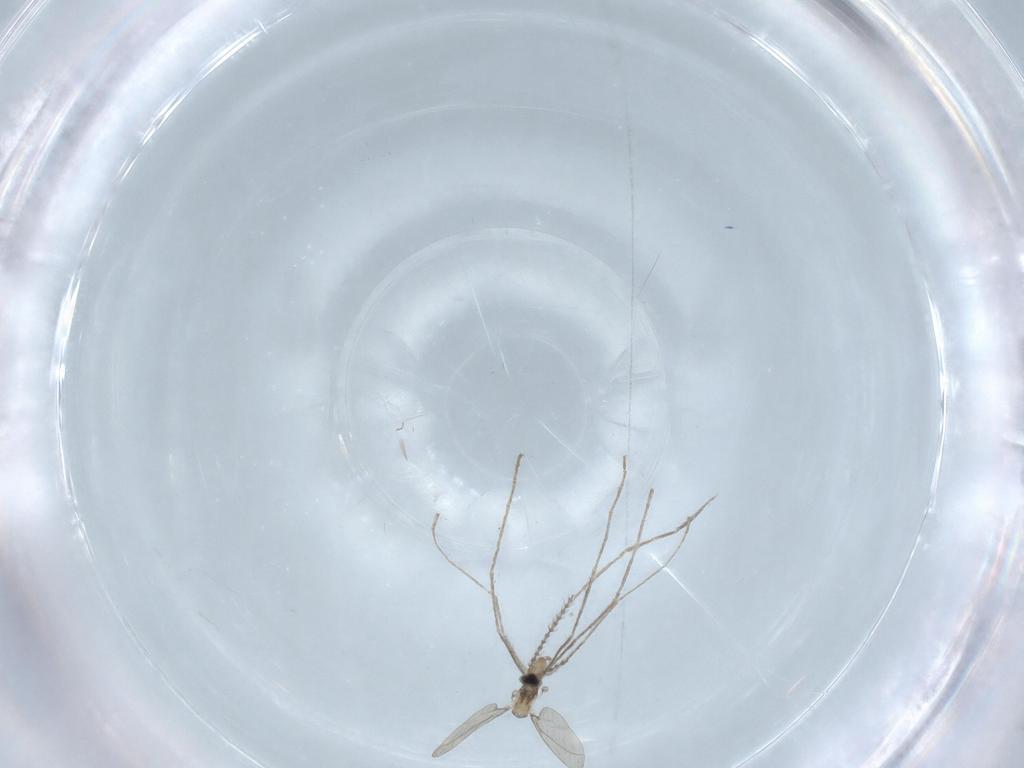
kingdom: Animalia
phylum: Arthropoda
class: Insecta
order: Diptera
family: Cecidomyiidae
